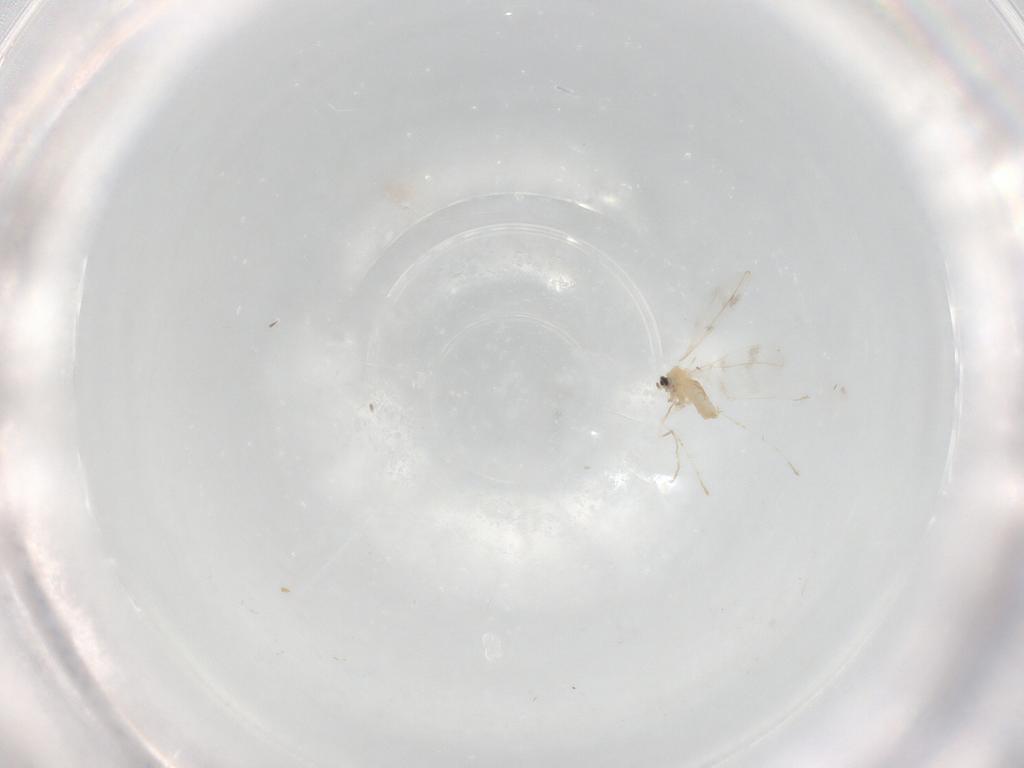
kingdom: Animalia
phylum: Arthropoda
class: Insecta
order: Diptera
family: Cecidomyiidae
